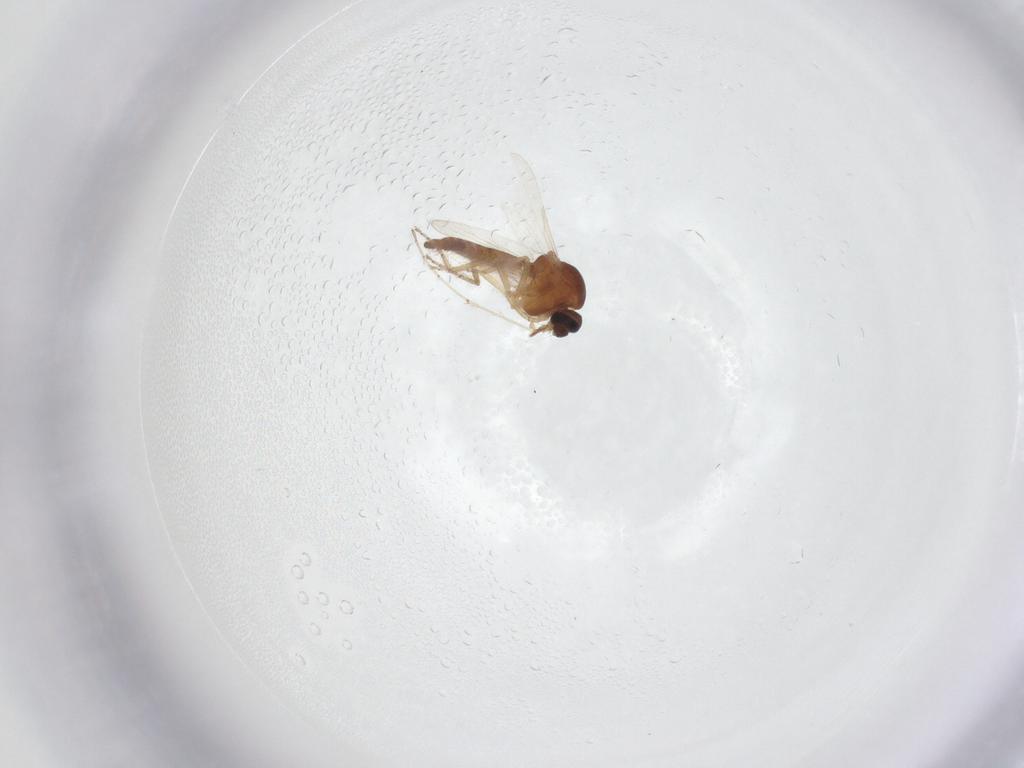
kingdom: Animalia
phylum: Arthropoda
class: Insecta
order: Diptera
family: Ceratopogonidae
